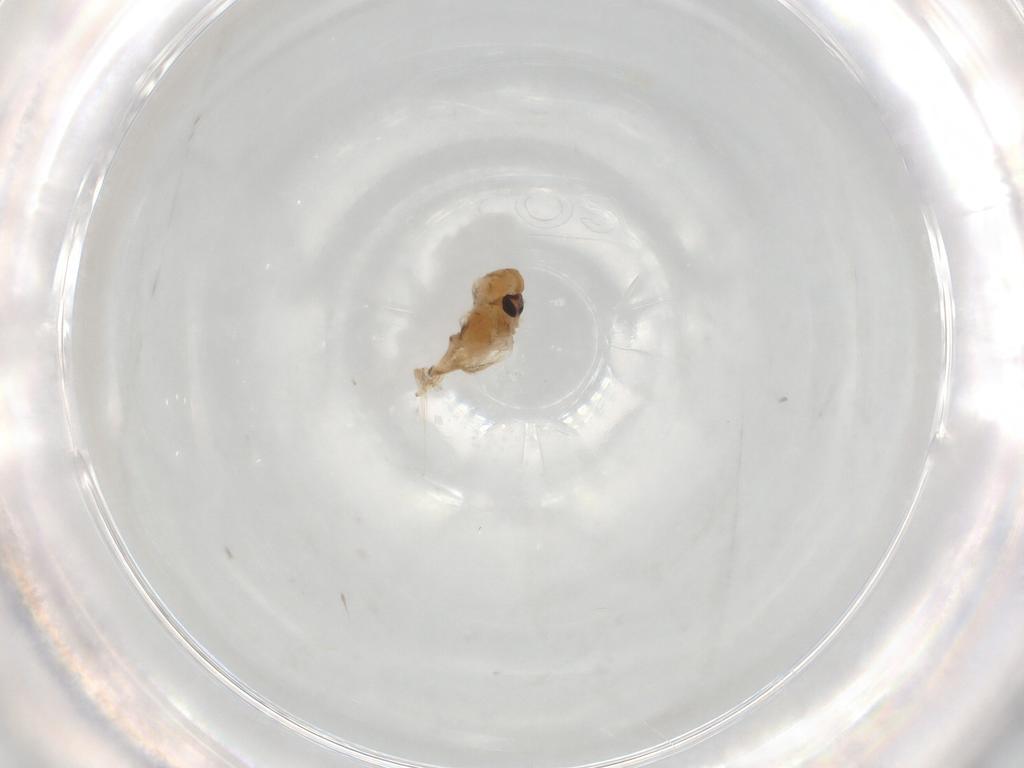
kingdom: Animalia
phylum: Arthropoda
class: Insecta
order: Diptera
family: Chironomidae
